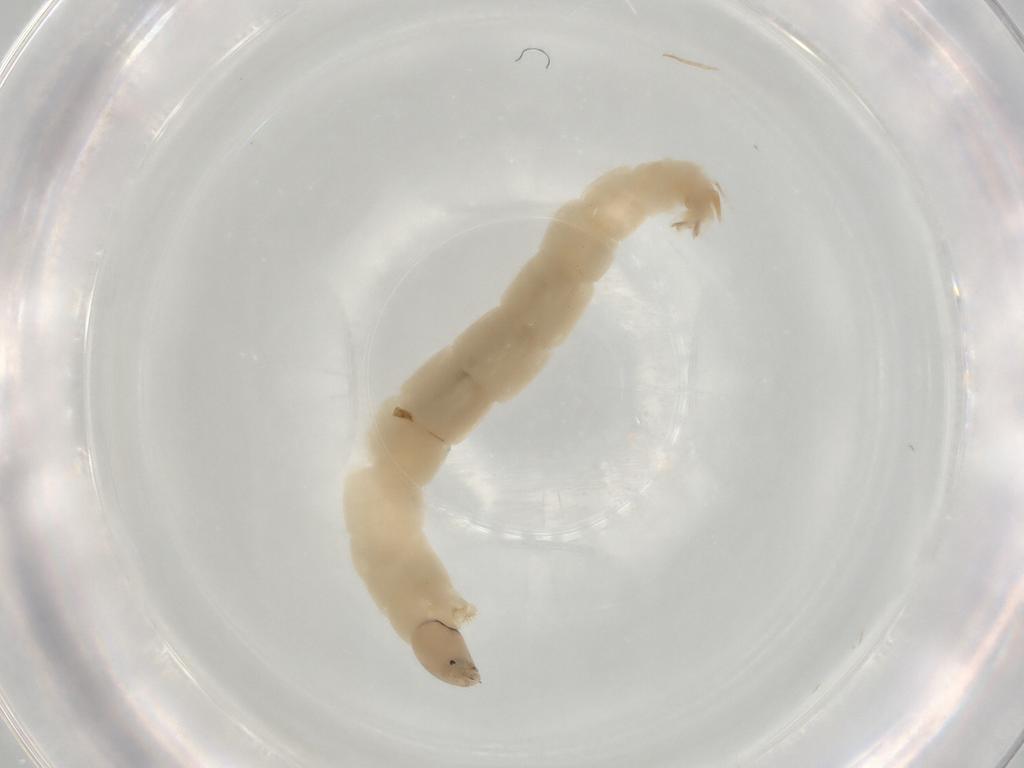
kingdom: Animalia
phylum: Arthropoda
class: Insecta
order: Diptera
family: Chironomidae
